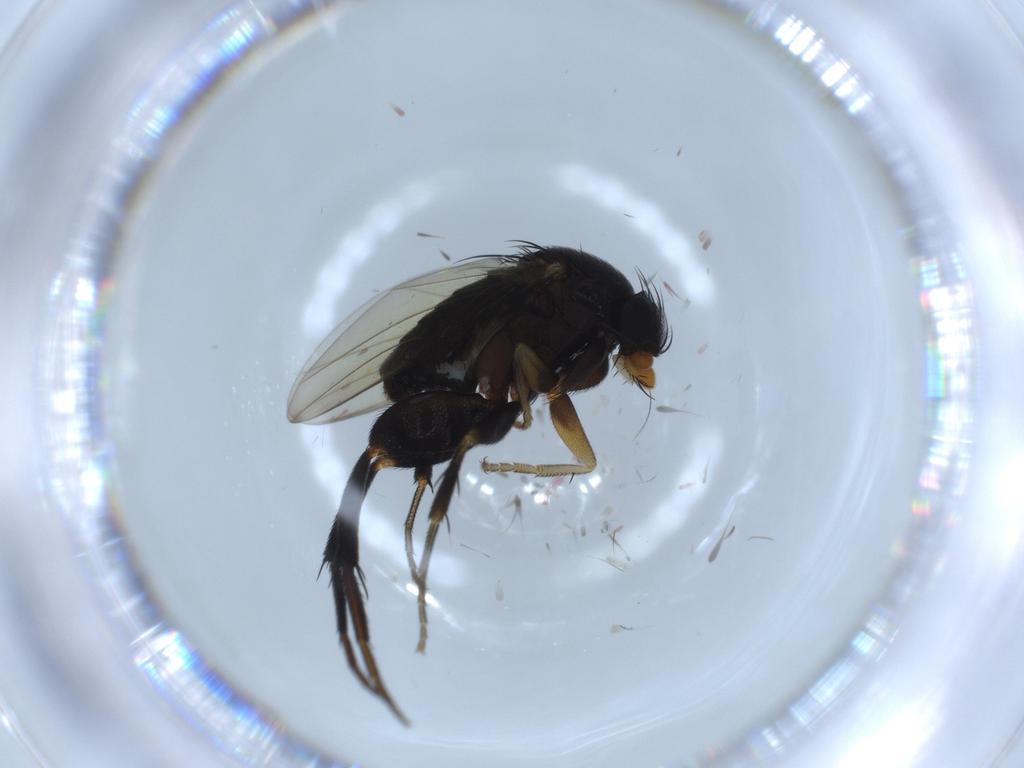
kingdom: Animalia
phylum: Arthropoda
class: Insecta
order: Diptera
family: Phoridae
